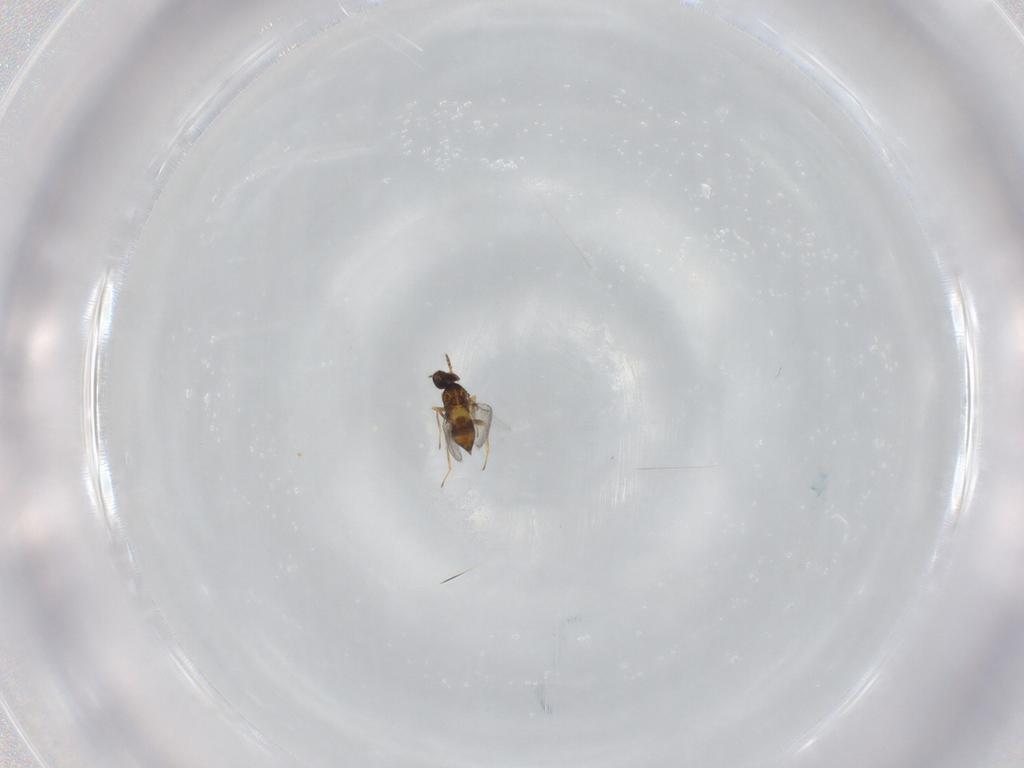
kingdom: Animalia
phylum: Arthropoda
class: Insecta
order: Hymenoptera
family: Trichogrammatidae
